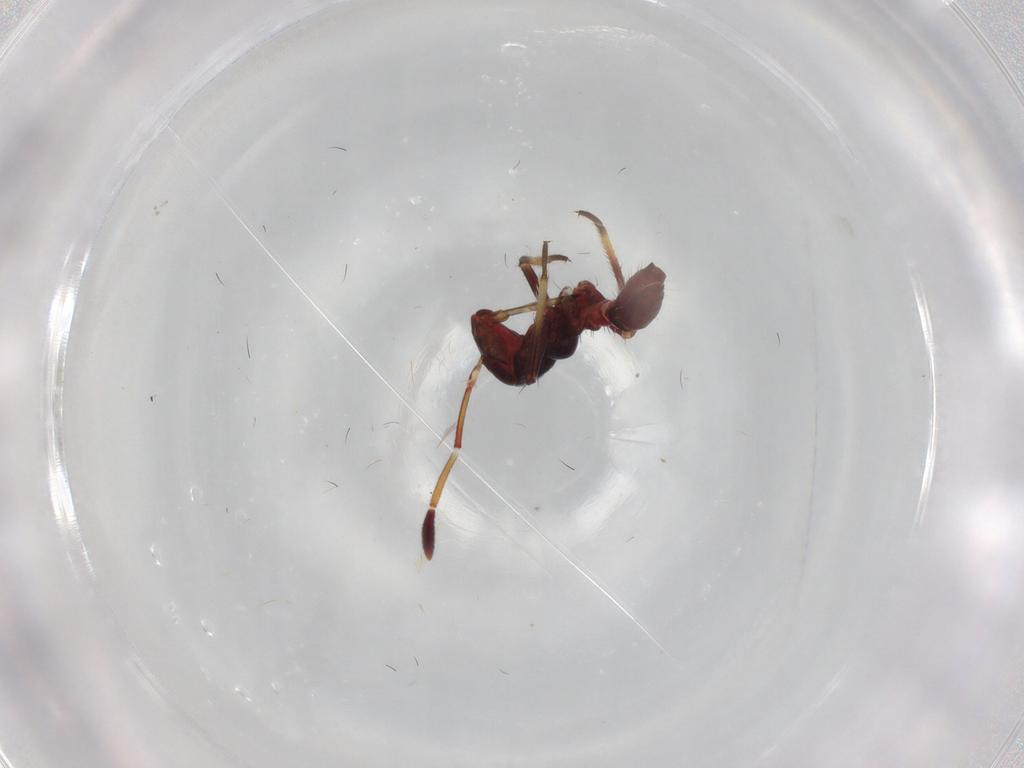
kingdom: Animalia
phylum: Arthropoda
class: Insecta
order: Hemiptera
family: Miridae
